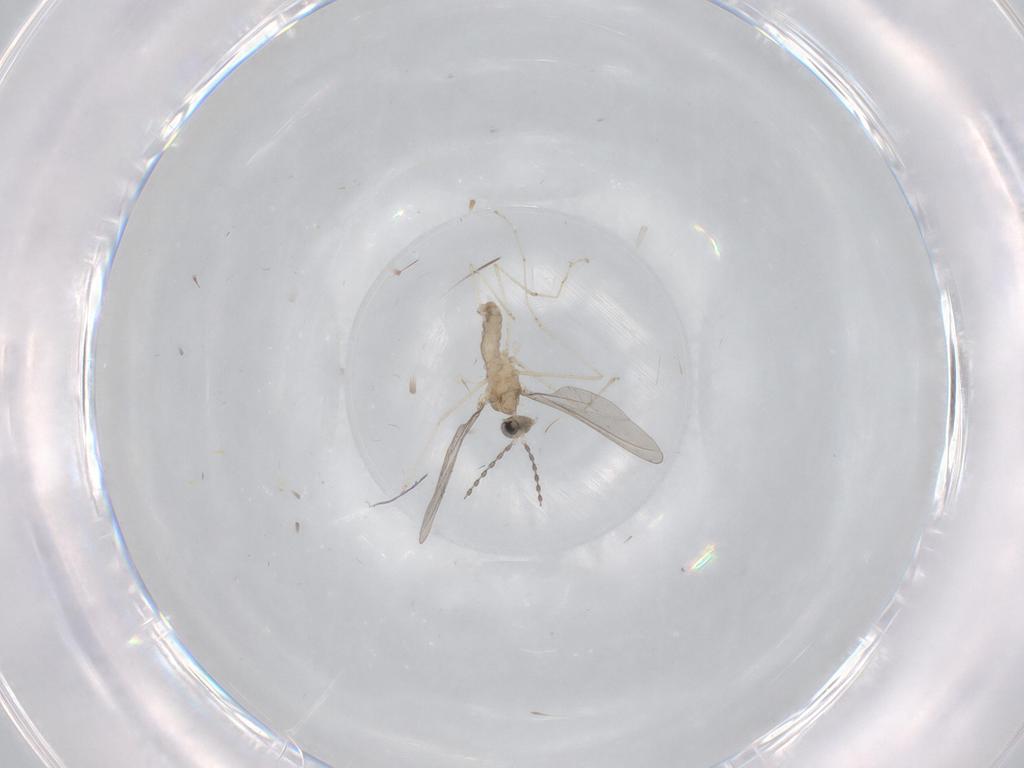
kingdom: Animalia
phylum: Arthropoda
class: Insecta
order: Diptera
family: Cecidomyiidae
